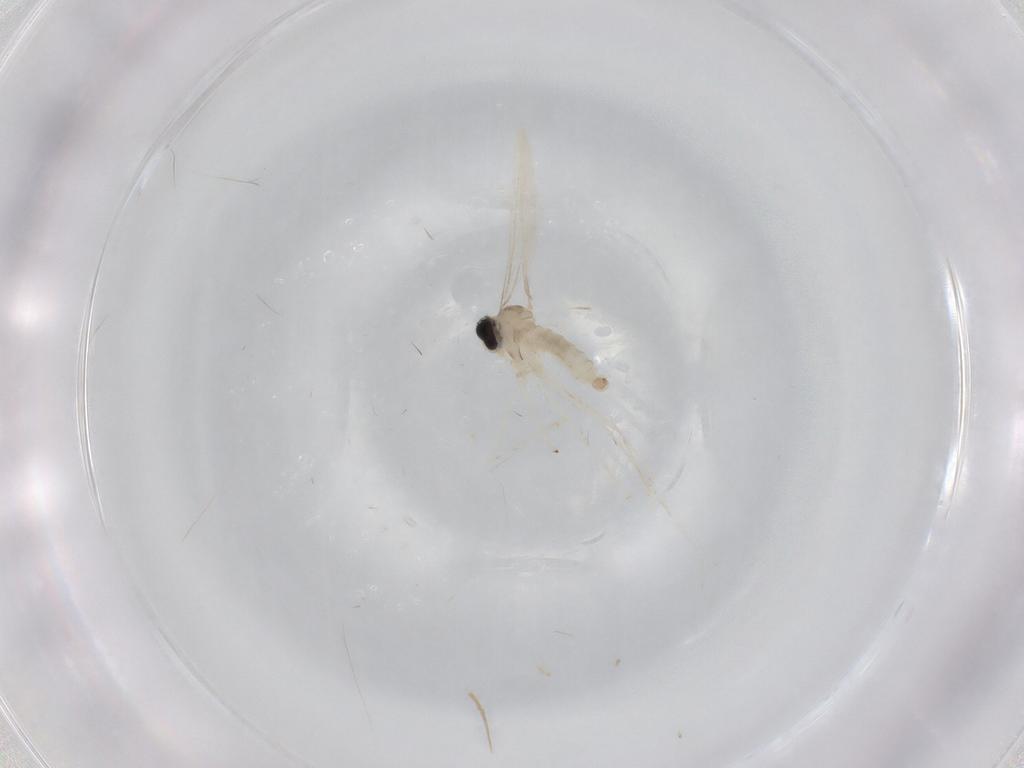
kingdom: Animalia
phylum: Arthropoda
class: Insecta
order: Diptera
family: Cecidomyiidae
